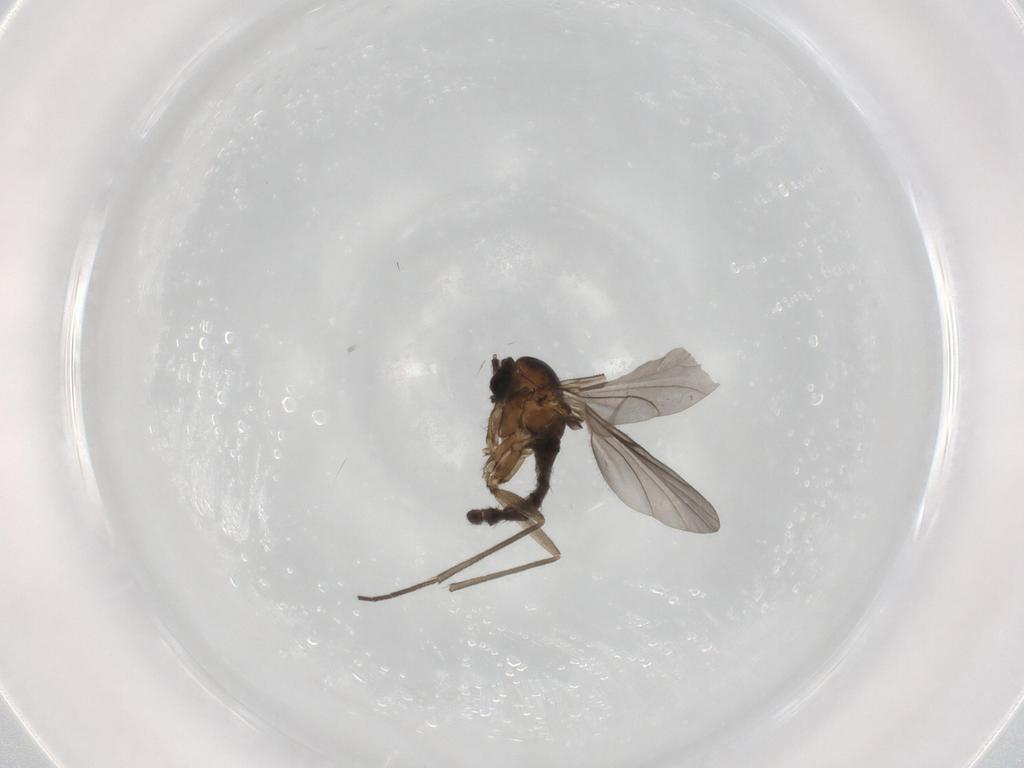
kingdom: Animalia
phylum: Arthropoda
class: Insecta
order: Diptera
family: Sciaridae
